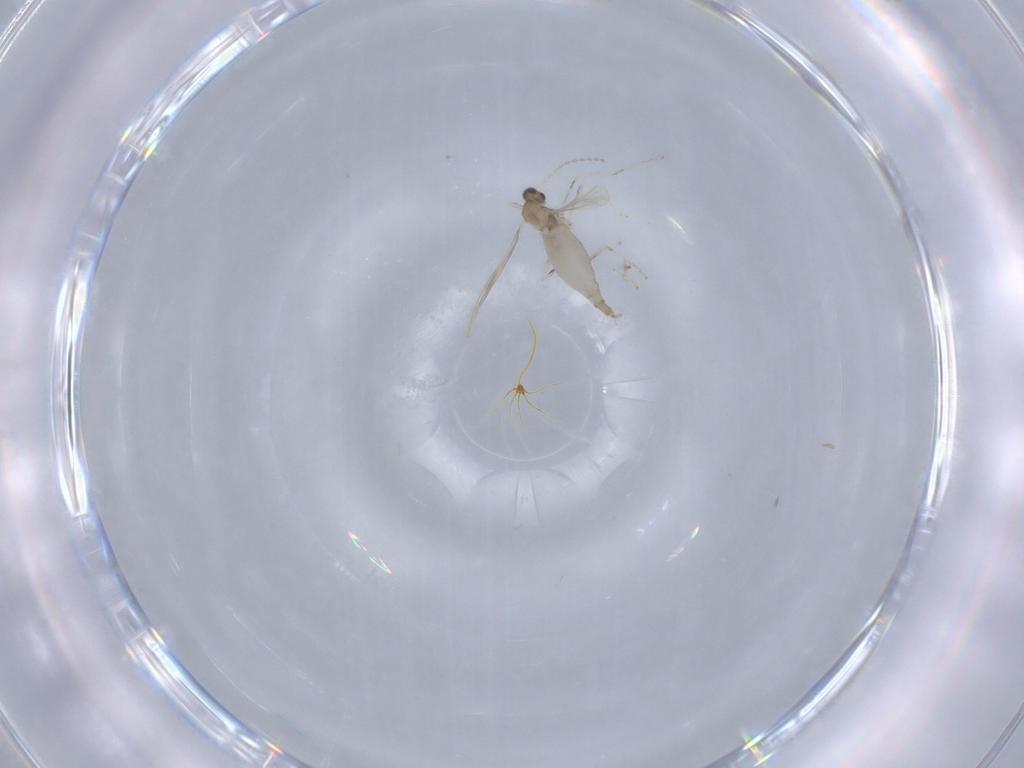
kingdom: Animalia
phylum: Arthropoda
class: Insecta
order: Diptera
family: Cecidomyiidae
